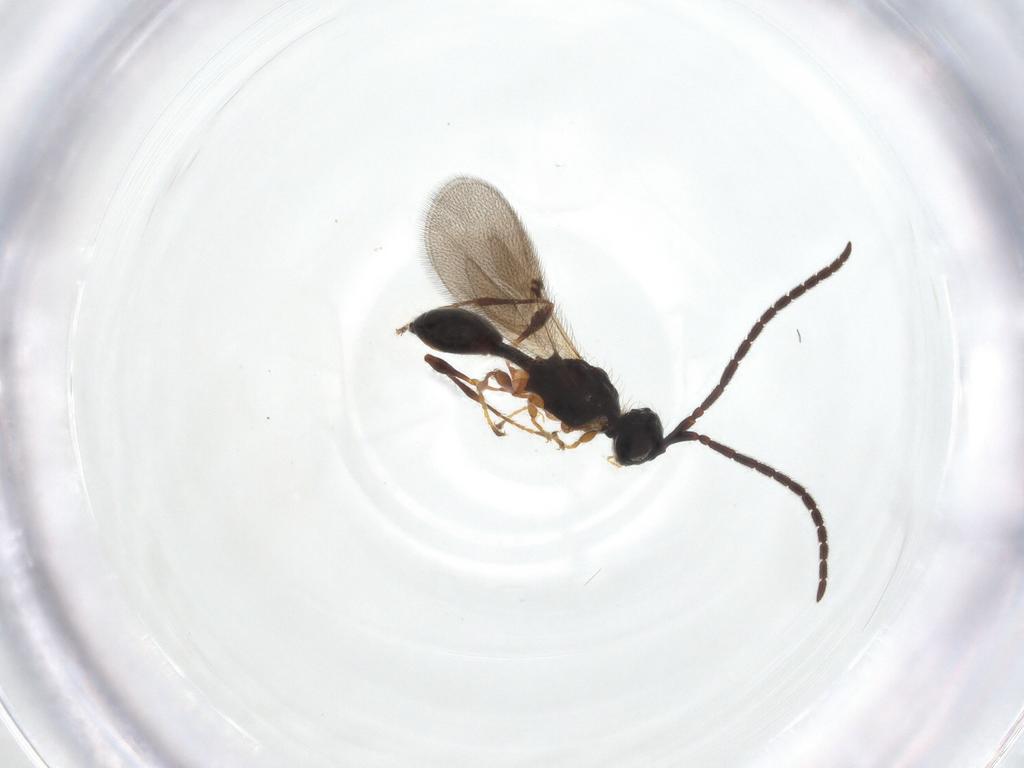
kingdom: Animalia
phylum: Arthropoda
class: Insecta
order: Hymenoptera
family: Diapriidae
